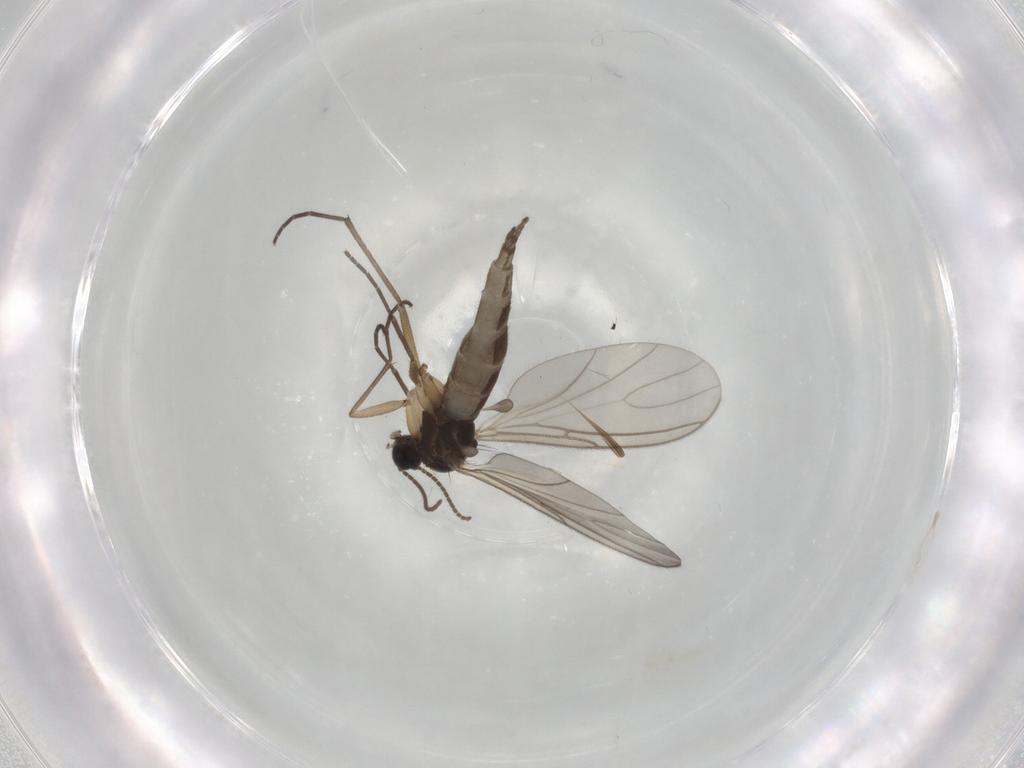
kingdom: Animalia
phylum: Arthropoda
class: Insecta
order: Diptera
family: Sciaridae
